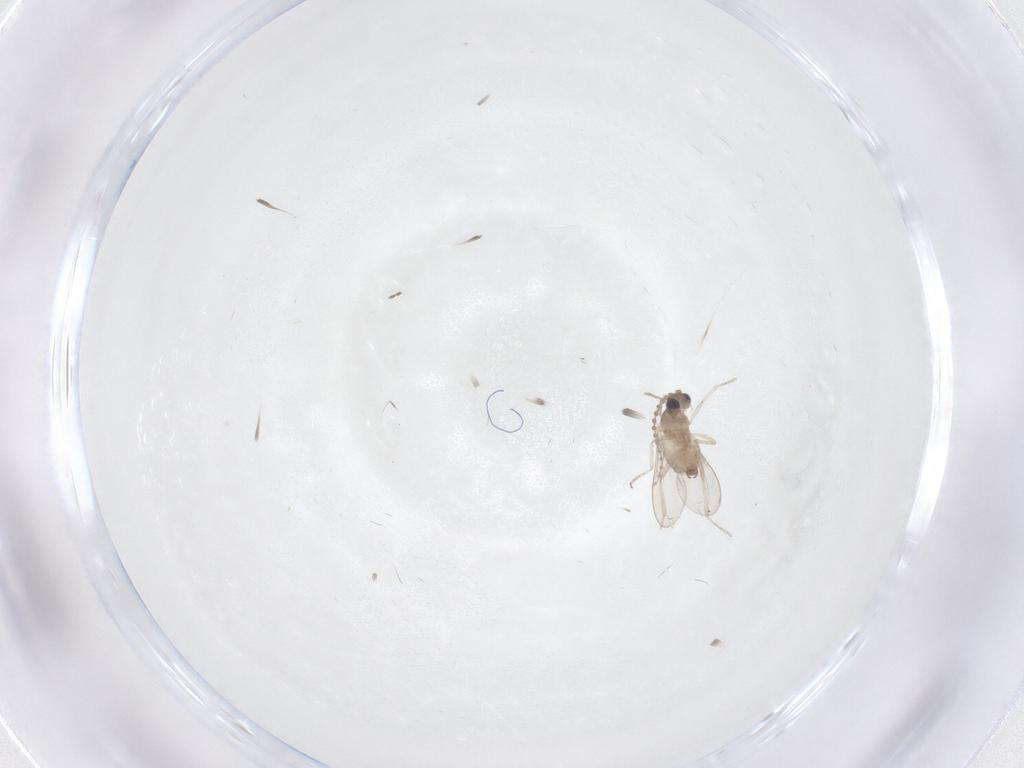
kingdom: Animalia
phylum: Arthropoda
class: Insecta
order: Diptera
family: Cecidomyiidae
